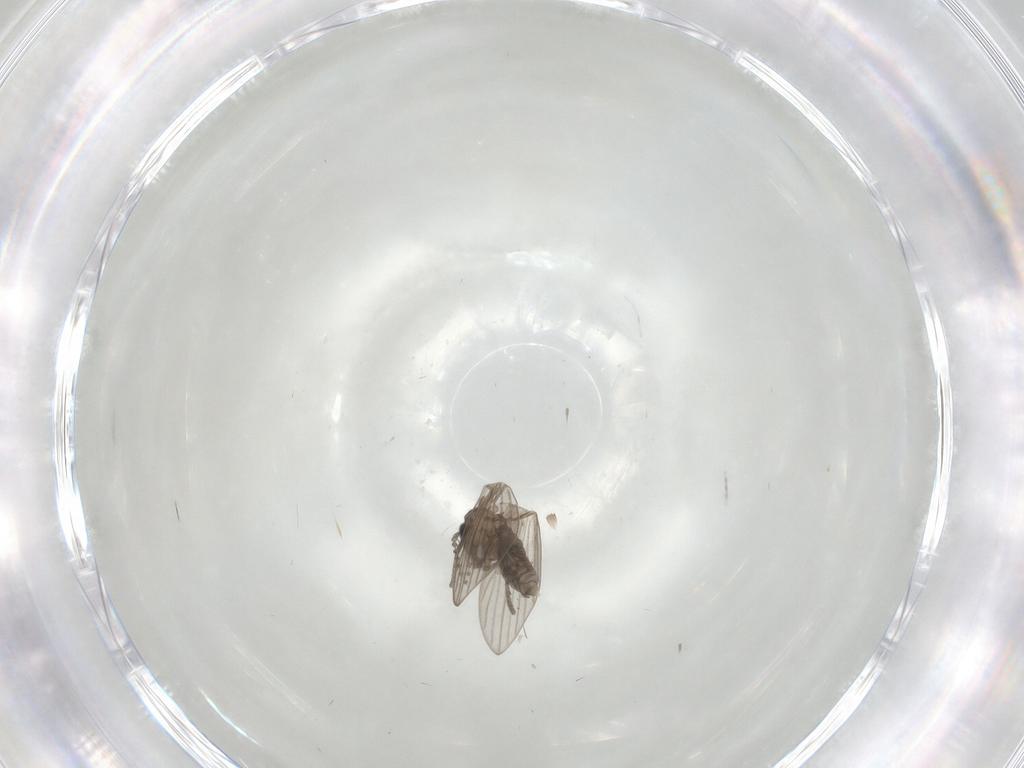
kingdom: Animalia
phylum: Arthropoda
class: Insecta
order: Diptera
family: Psychodidae
